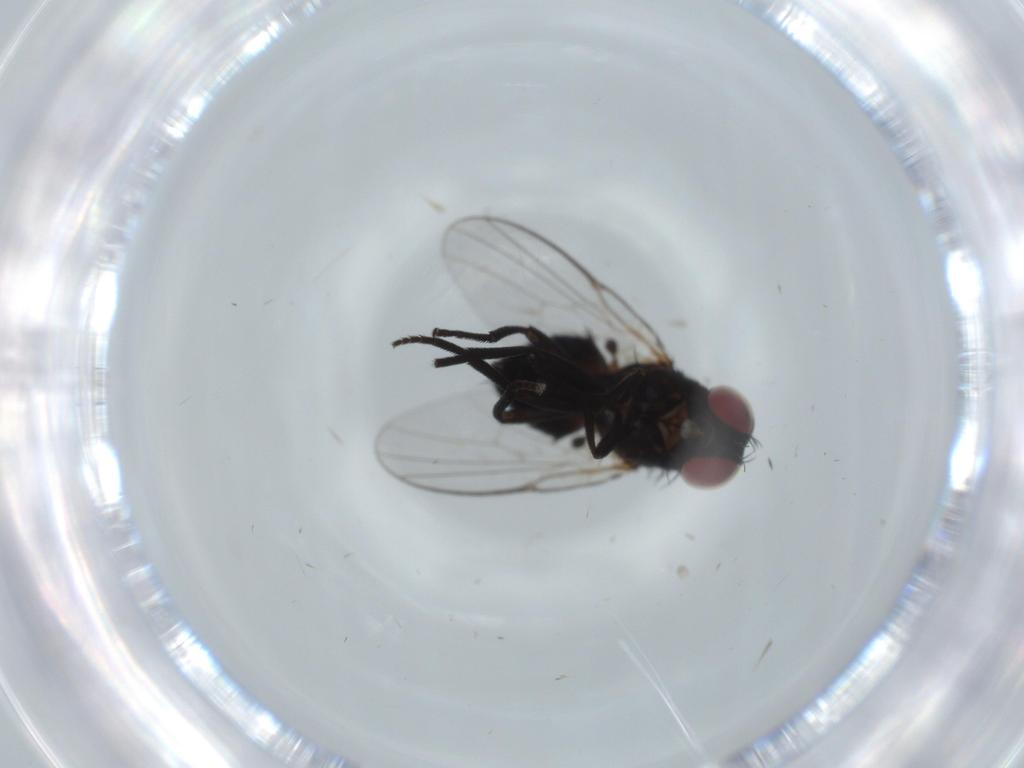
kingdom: Animalia
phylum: Arthropoda
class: Insecta
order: Diptera
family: Agromyzidae
